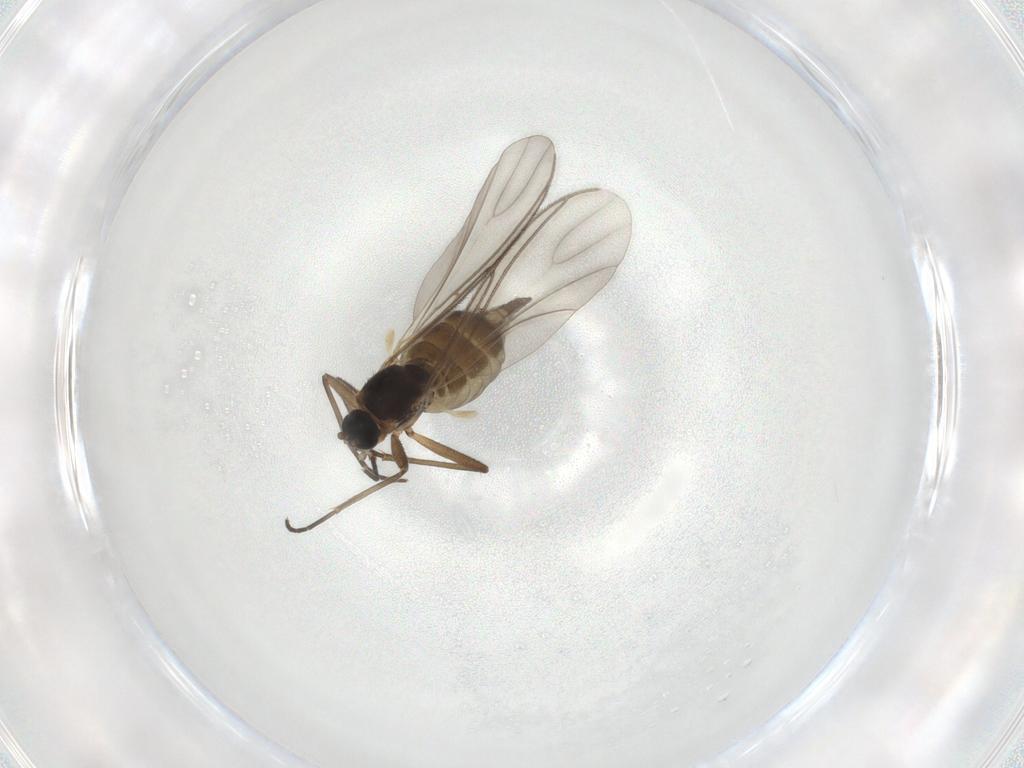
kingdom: Animalia
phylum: Arthropoda
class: Insecta
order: Diptera
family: Sciaridae
